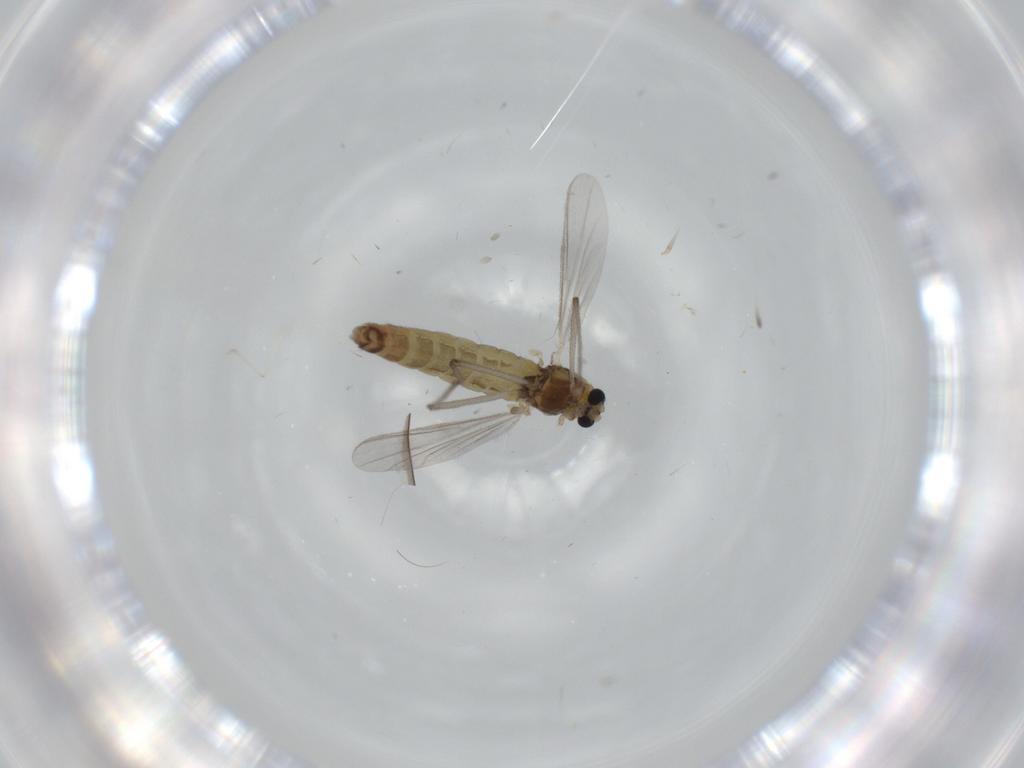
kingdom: Animalia
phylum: Arthropoda
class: Insecta
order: Diptera
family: Chironomidae
